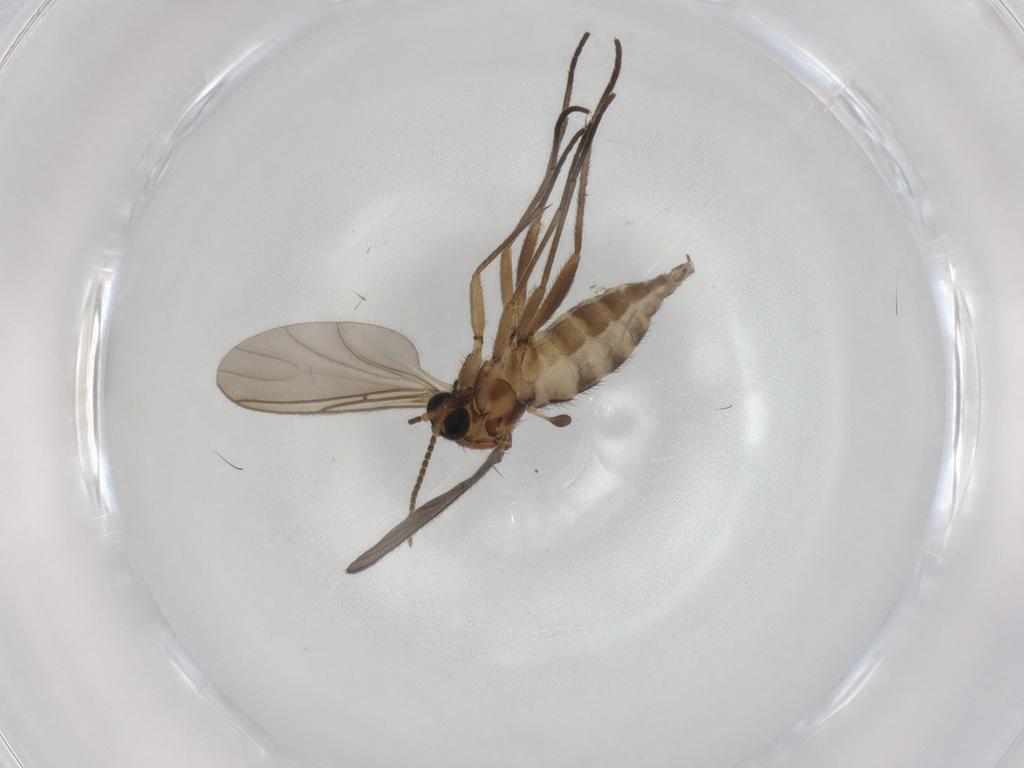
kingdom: Animalia
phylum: Arthropoda
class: Insecta
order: Diptera
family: Sciaridae
